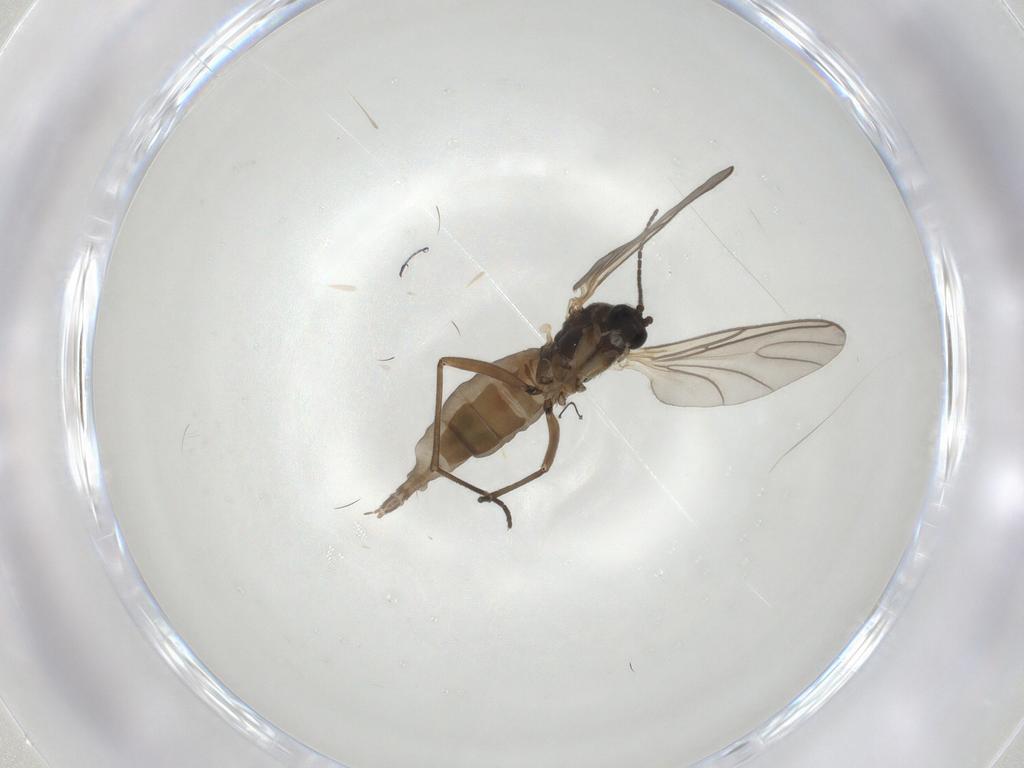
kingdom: Animalia
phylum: Arthropoda
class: Insecta
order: Diptera
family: Sciaridae
